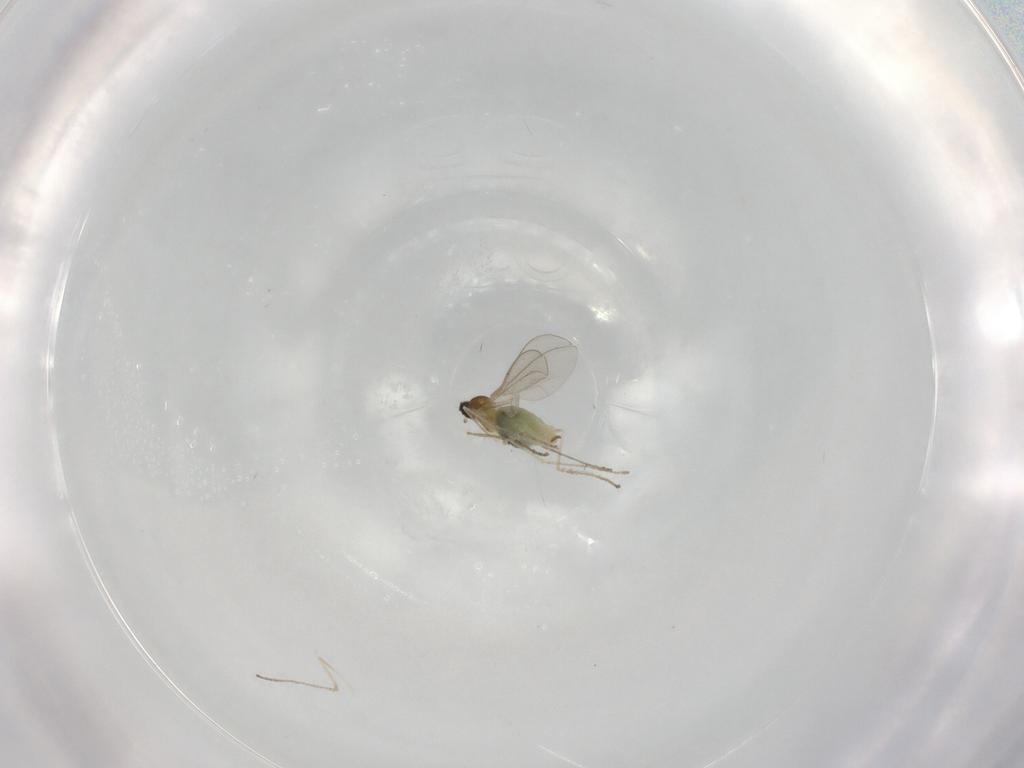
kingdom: Animalia
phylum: Arthropoda
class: Insecta
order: Diptera
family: Cecidomyiidae
